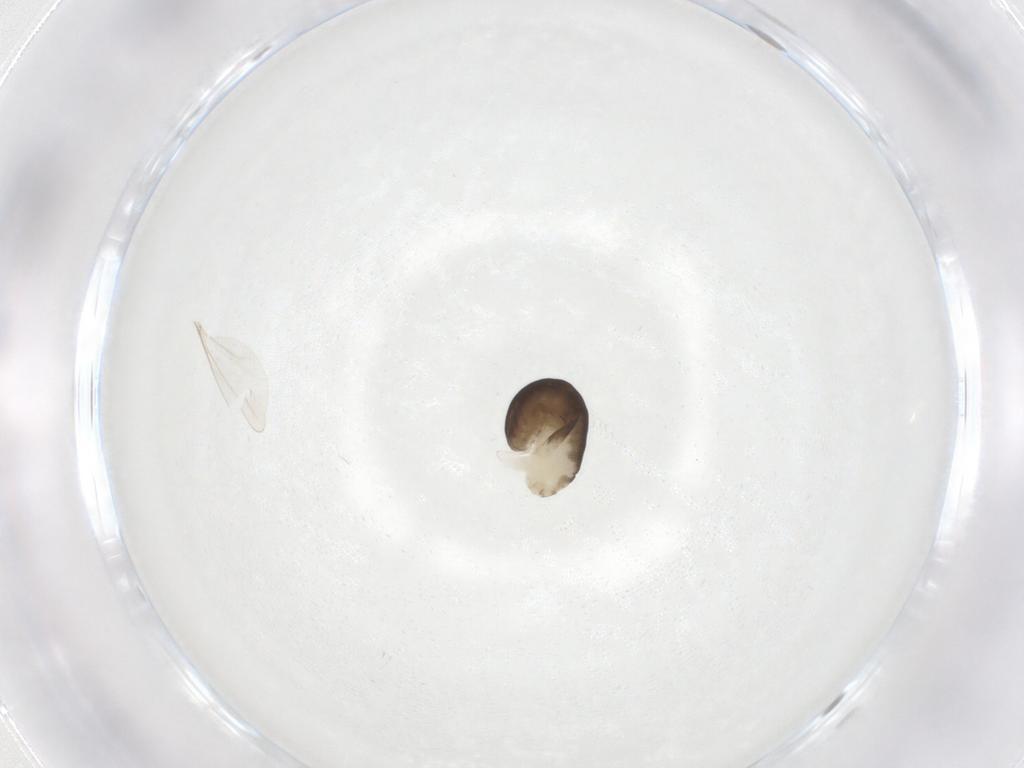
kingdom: Animalia
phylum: Arthropoda
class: Insecta
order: Hymenoptera
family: Dryinidae
